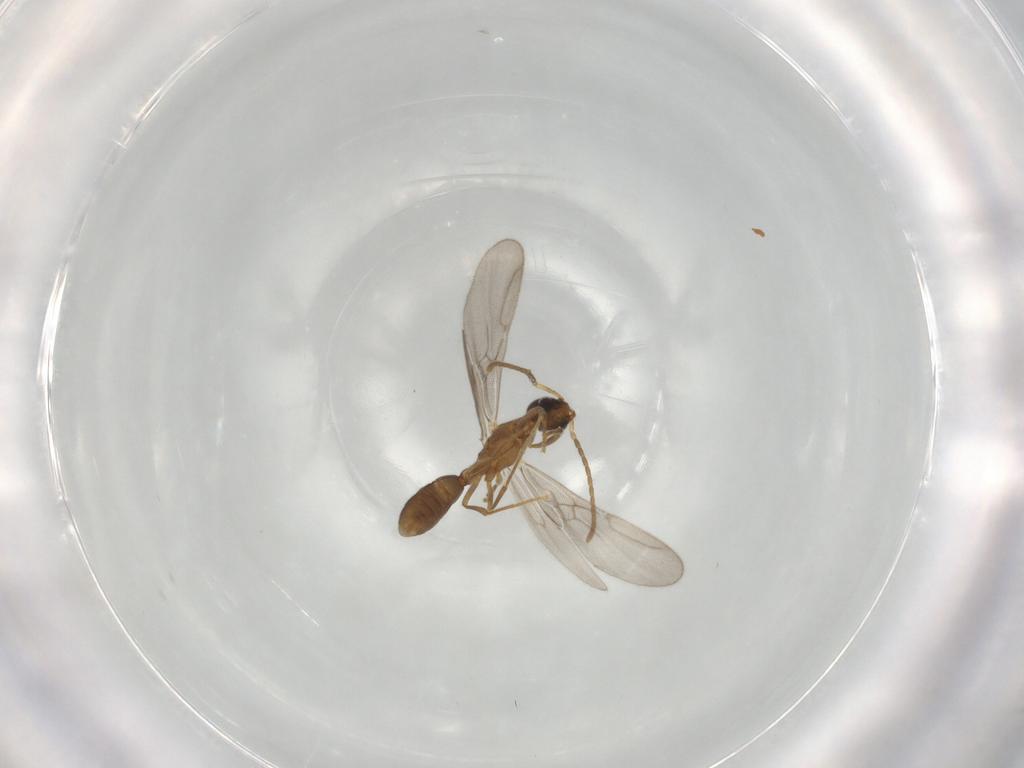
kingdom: Animalia
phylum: Arthropoda
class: Insecta
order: Hymenoptera
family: Formicidae
